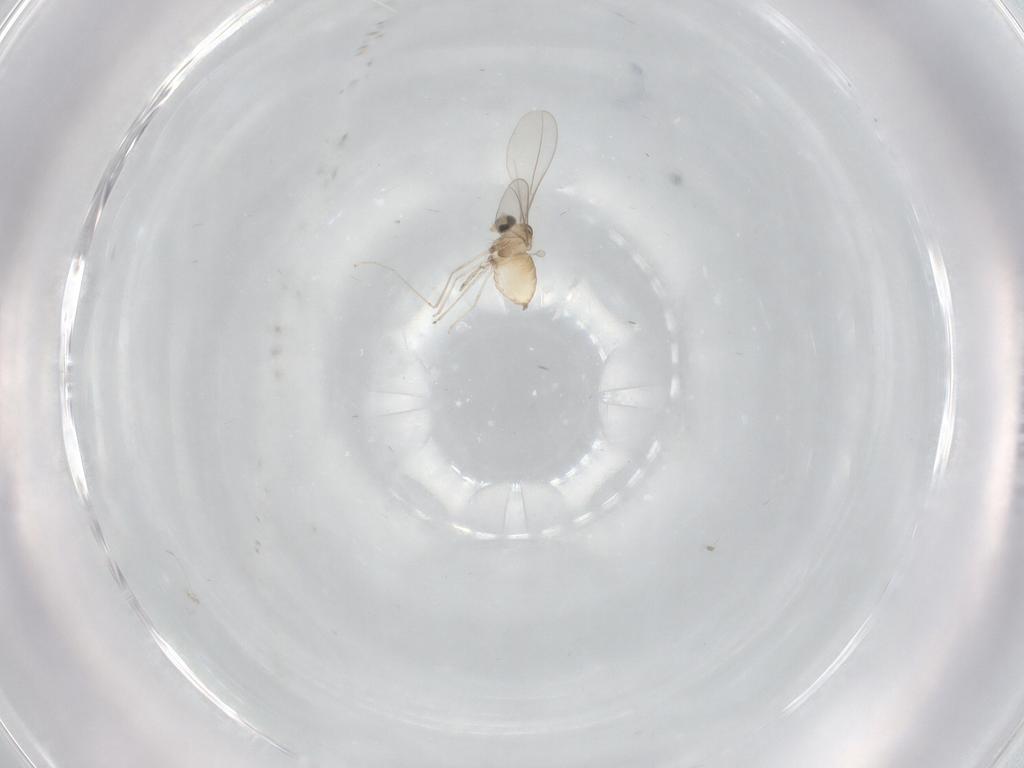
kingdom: Animalia
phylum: Arthropoda
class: Insecta
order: Diptera
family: Cecidomyiidae
